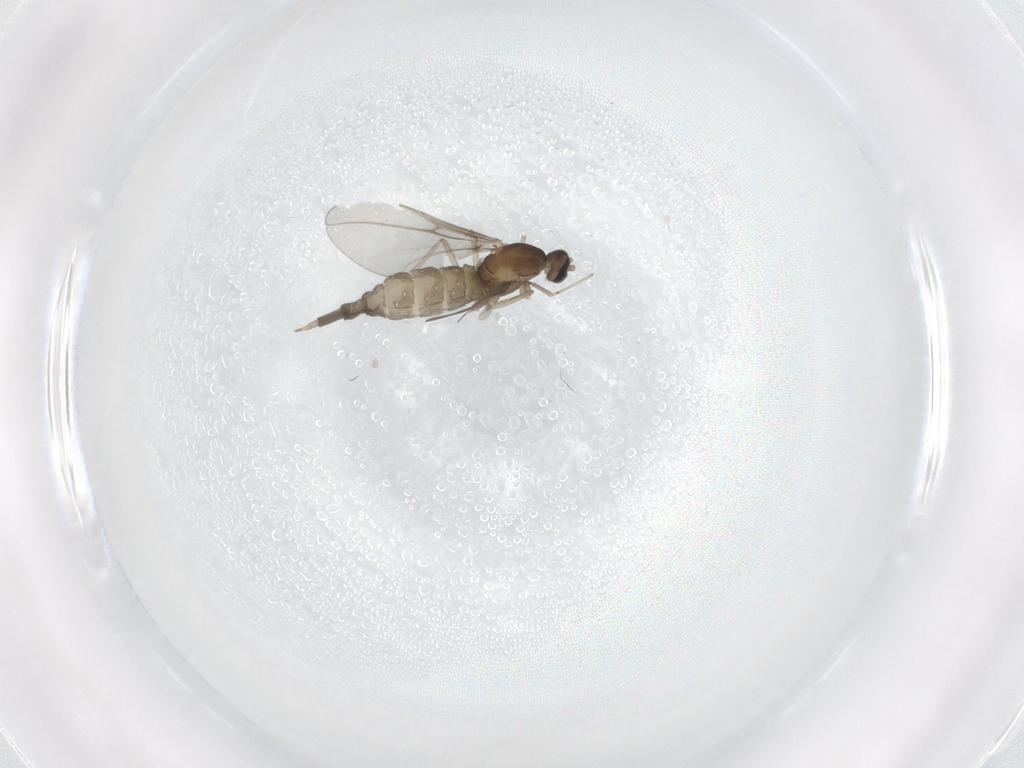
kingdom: Animalia
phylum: Arthropoda
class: Insecta
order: Diptera
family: Cecidomyiidae
